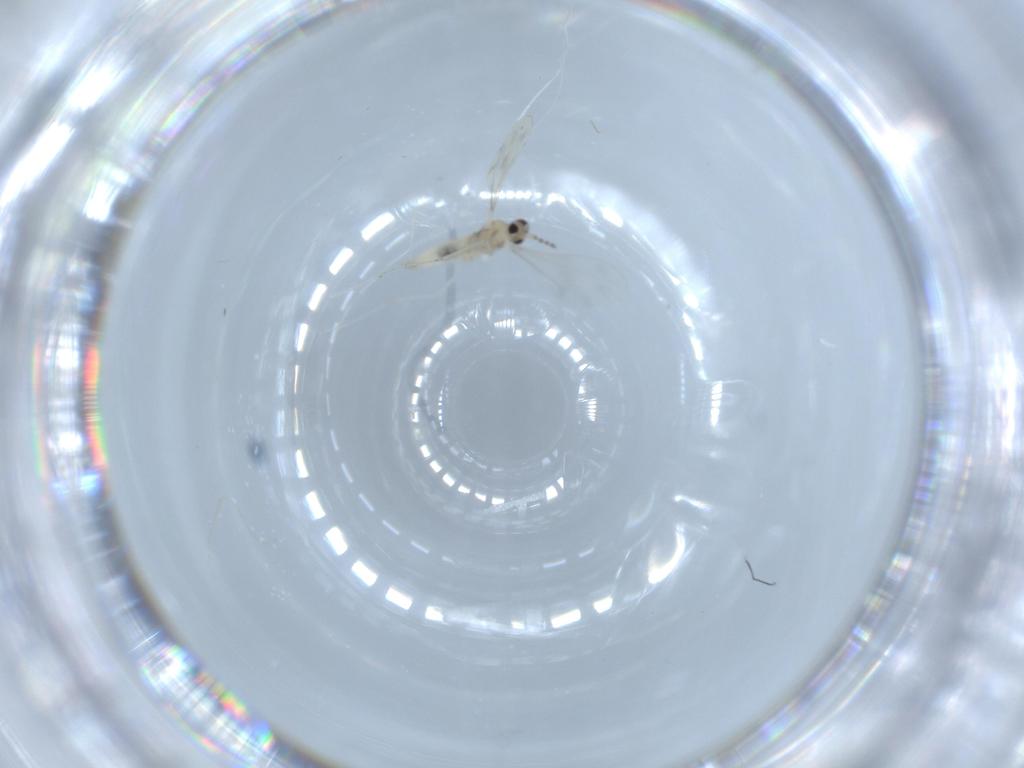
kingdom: Animalia
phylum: Arthropoda
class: Insecta
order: Diptera
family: Cecidomyiidae
